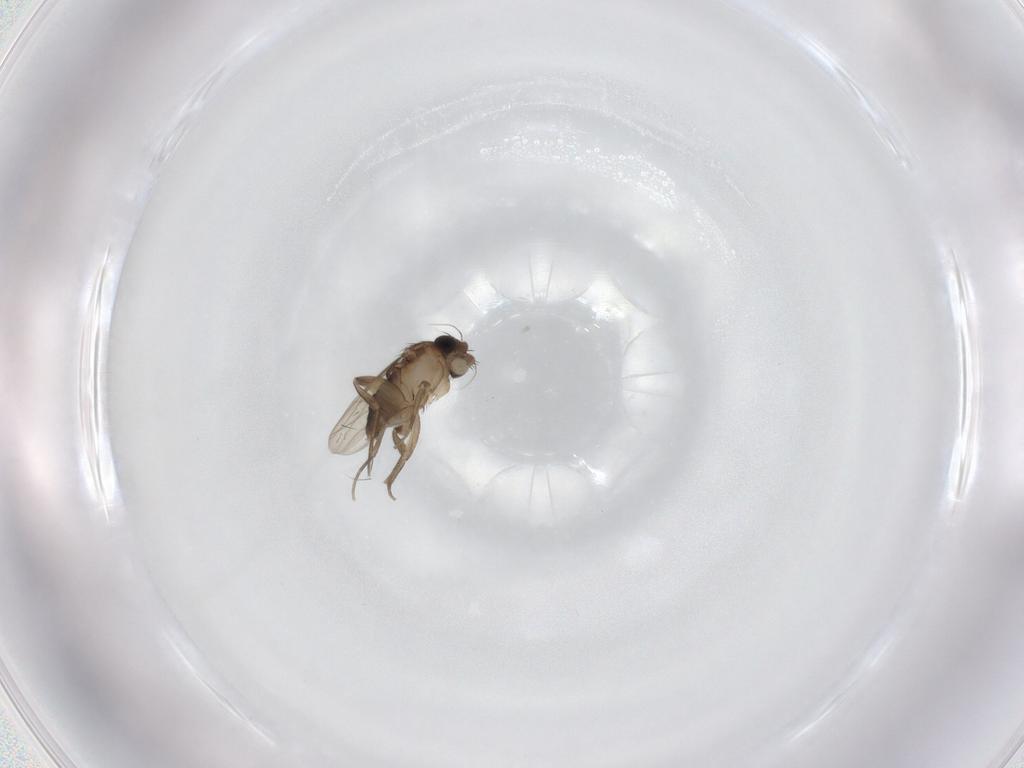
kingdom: Animalia
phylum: Arthropoda
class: Insecta
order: Diptera
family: Phoridae
